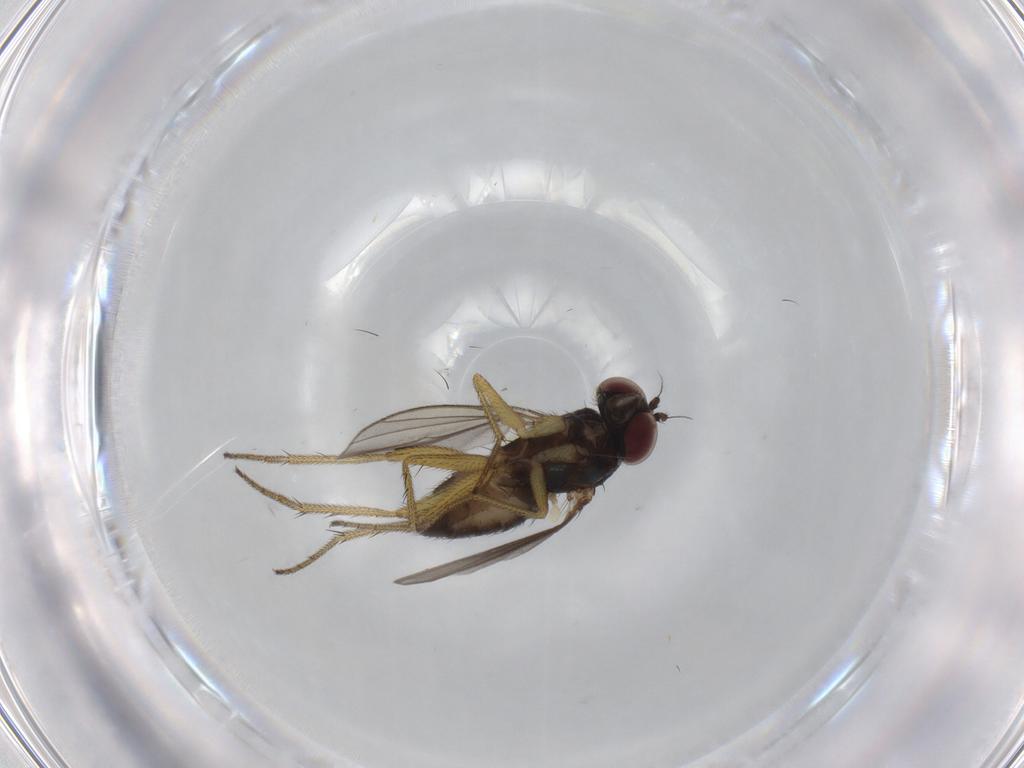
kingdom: Animalia
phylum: Arthropoda
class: Insecta
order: Diptera
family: Dolichopodidae
